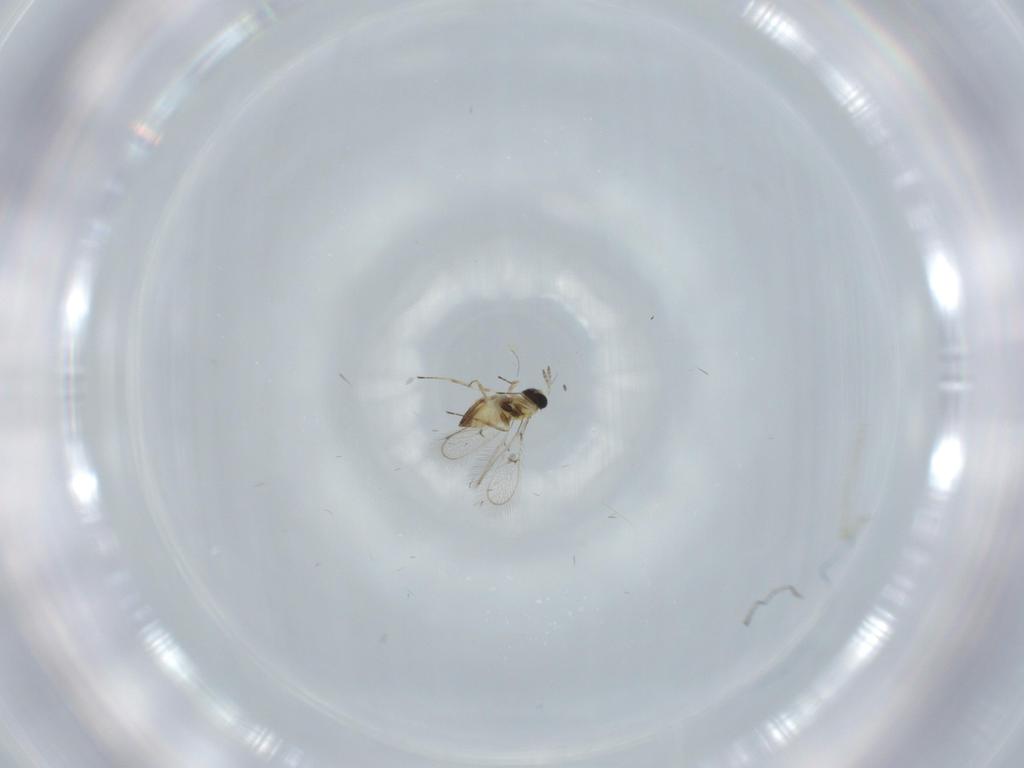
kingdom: Animalia
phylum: Arthropoda
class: Insecta
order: Hymenoptera
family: Trichogrammatidae
